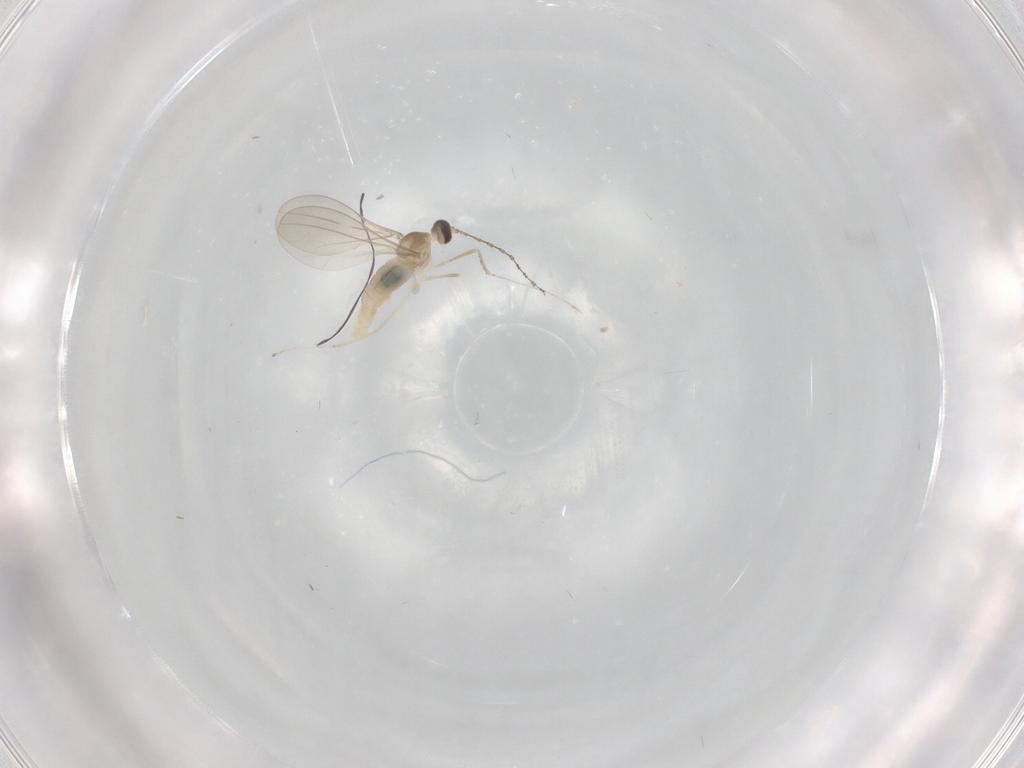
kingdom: Animalia
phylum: Arthropoda
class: Insecta
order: Diptera
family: Cecidomyiidae
